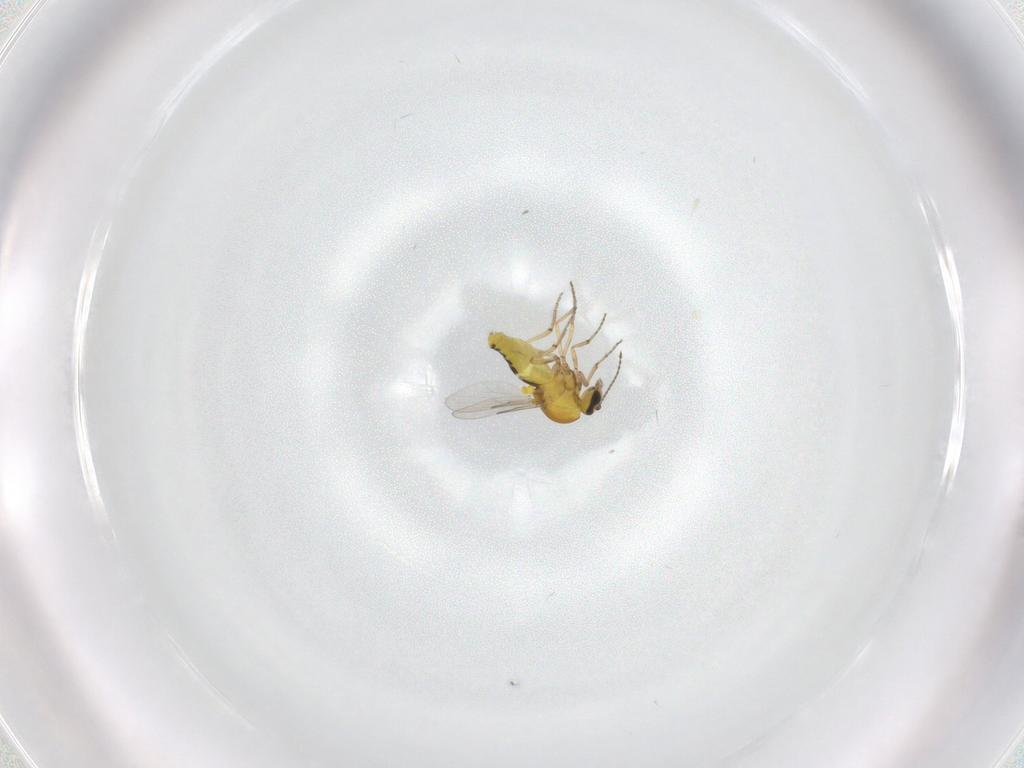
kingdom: Animalia
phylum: Arthropoda
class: Insecta
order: Diptera
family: Ceratopogonidae
